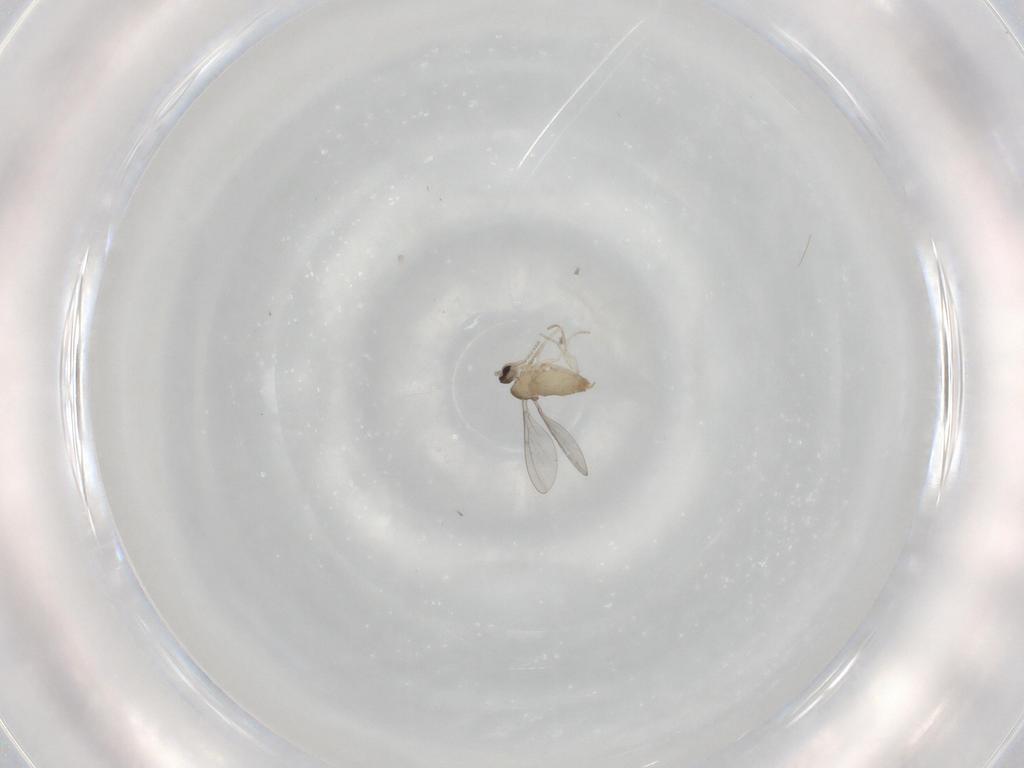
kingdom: Animalia
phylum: Arthropoda
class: Insecta
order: Diptera
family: Cecidomyiidae
